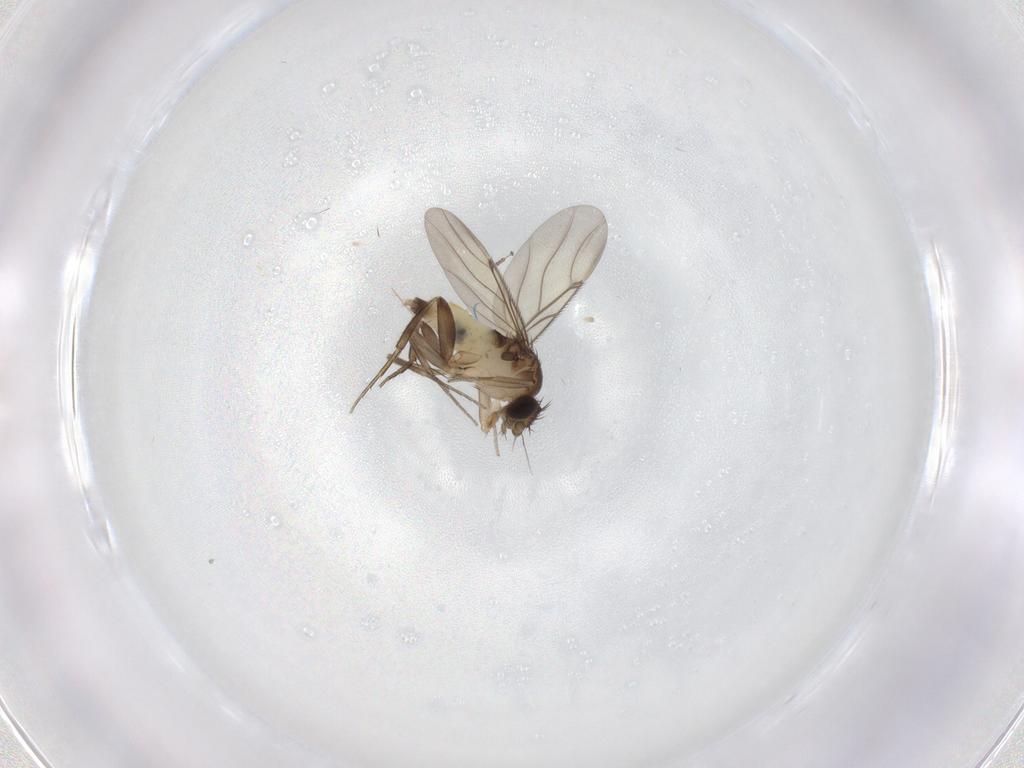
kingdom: Animalia
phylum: Arthropoda
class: Insecta
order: Diptera
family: Phoridae
